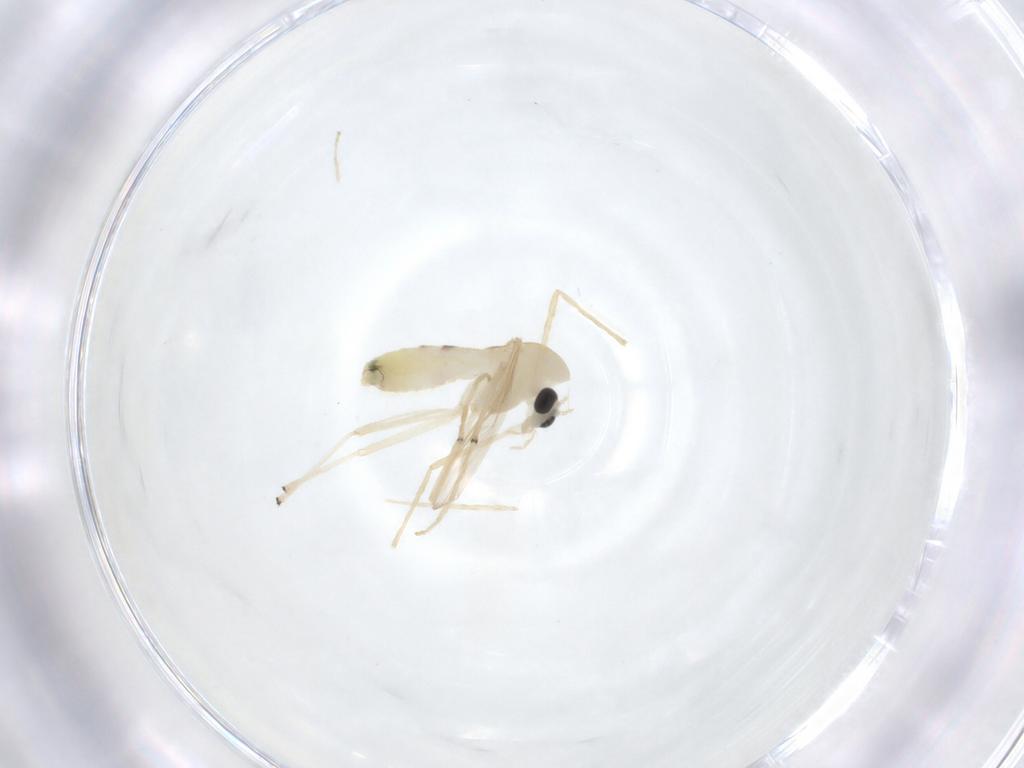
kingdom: Animalia
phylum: Arthropoda
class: Insecta
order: Diptera
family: Chironomidae
